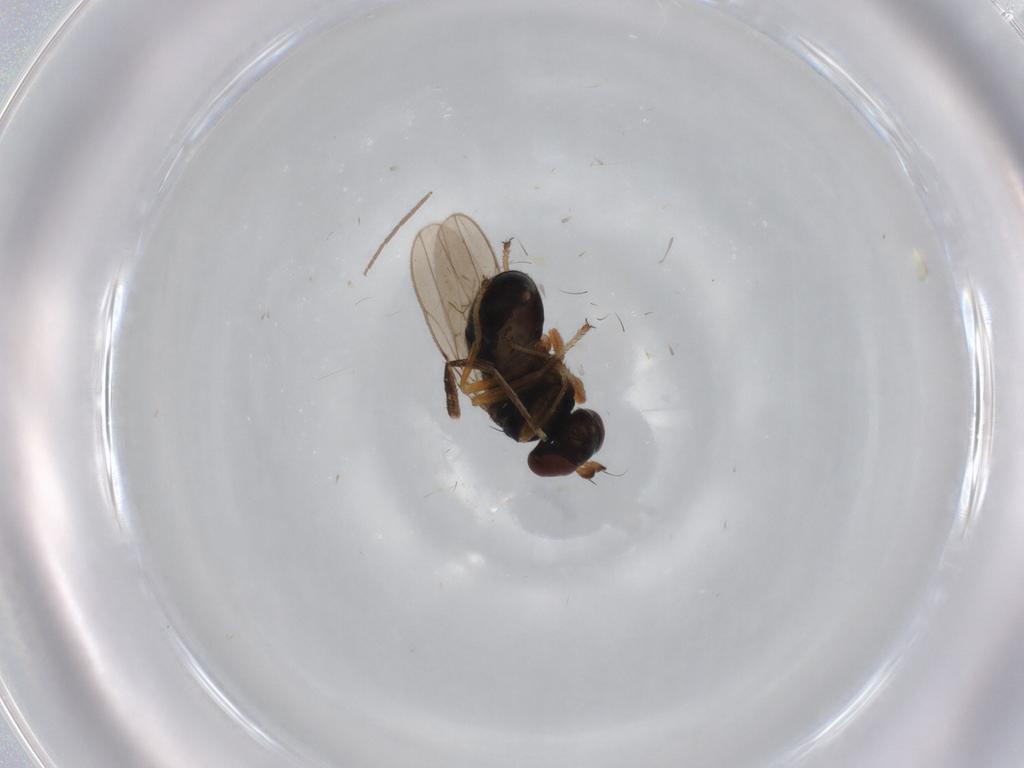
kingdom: Animalia
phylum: Arthropoda
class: Insecta
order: Diptera
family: Ephydridae
